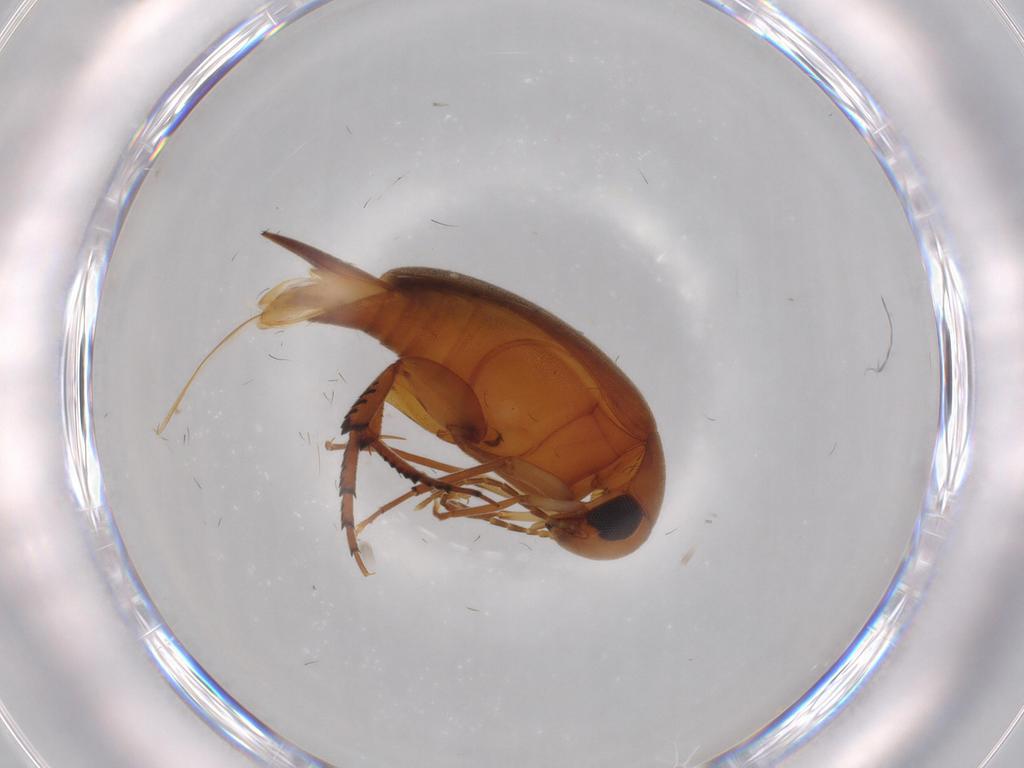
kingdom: Animalia
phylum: Arthropoda
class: Insecta
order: Coleoptera
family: Mordellidae
